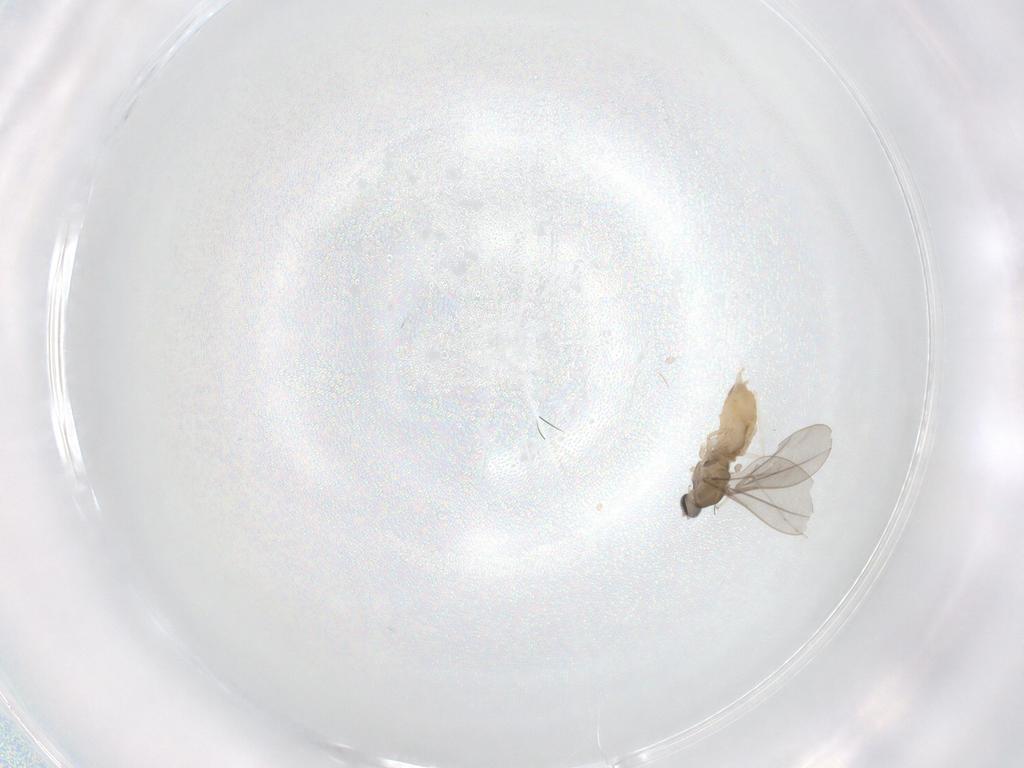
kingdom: Animalia
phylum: Arthropoda
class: Insecta
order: Diptera
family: Cecidomyiidae
